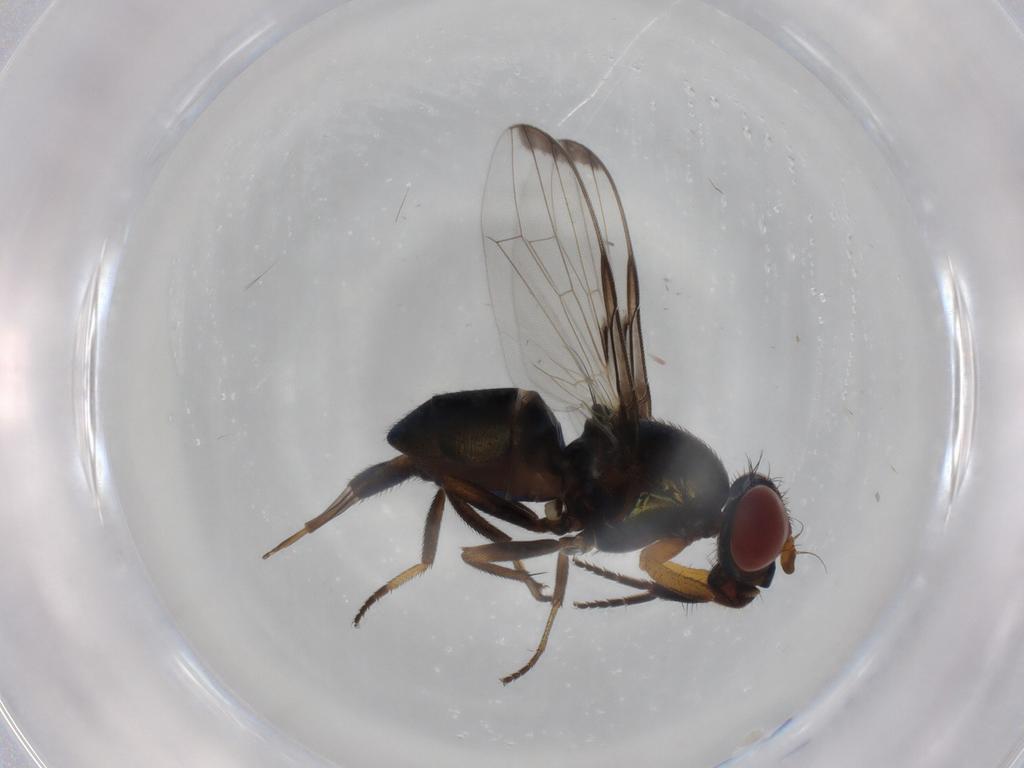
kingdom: Animalia
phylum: Arthropoda
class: Insecta
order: Diptera
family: Ulidiidae
